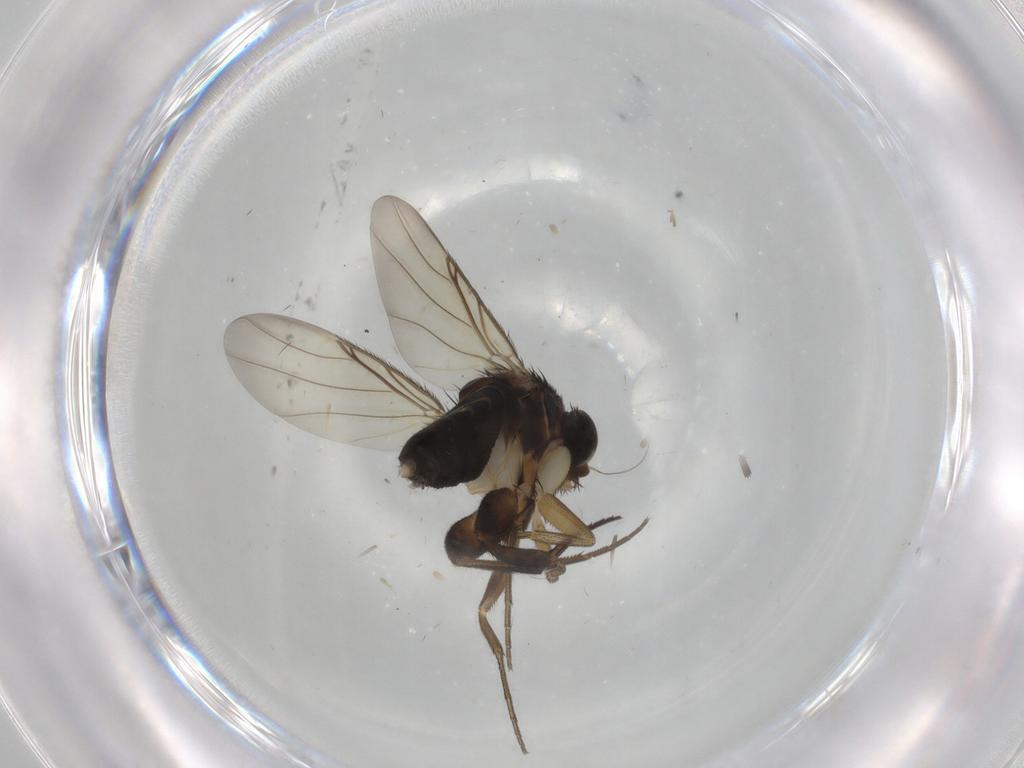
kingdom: Animalia
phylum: Arthropoda
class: Insecta
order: Diptera
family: Phoridae
